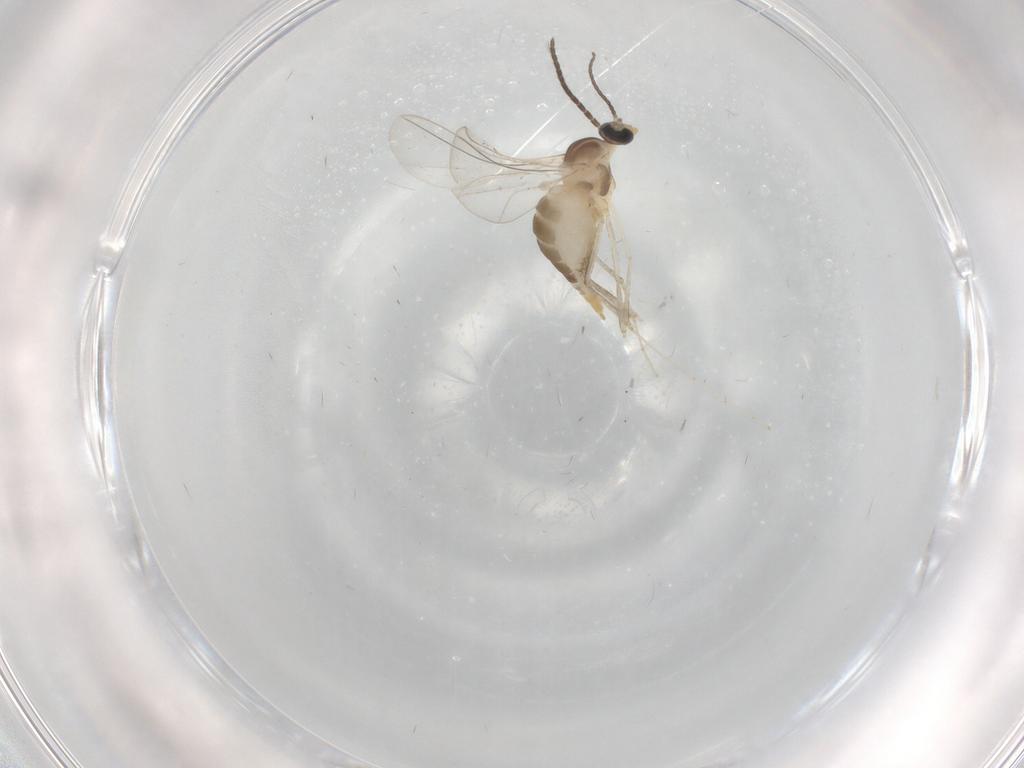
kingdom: Animalia
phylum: Arthropoda
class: Insecta
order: Diptera
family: Cecidomyiidae
